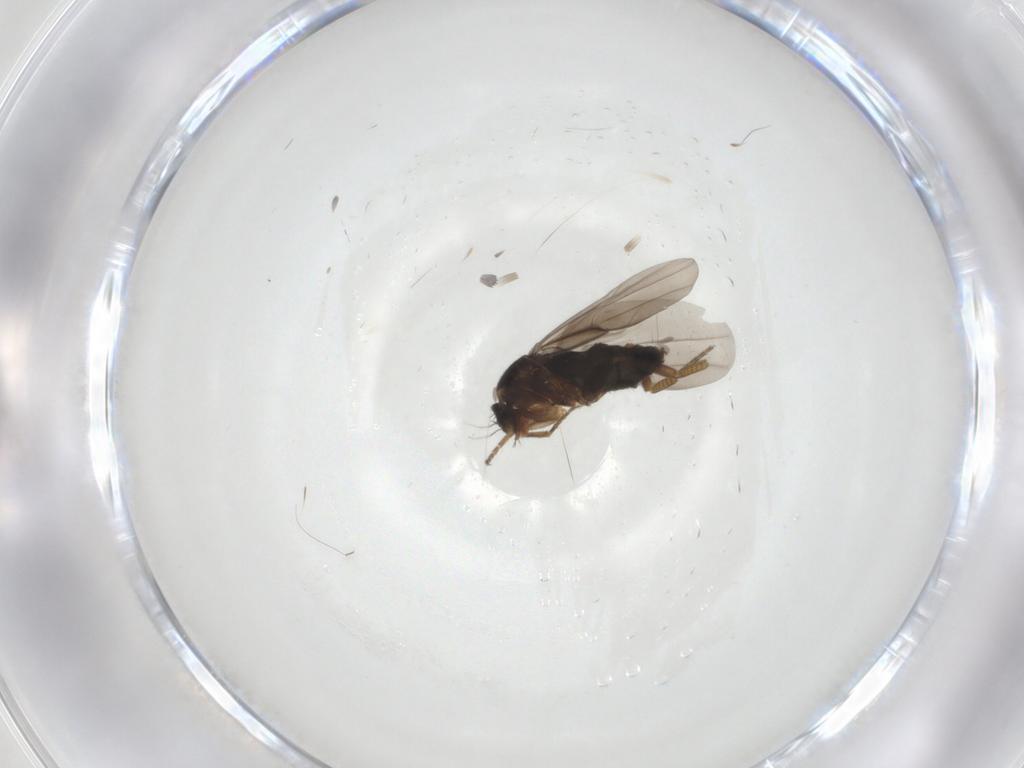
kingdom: Animalia
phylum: Arthropoda
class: Insecta
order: Diptera
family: Phoridae
